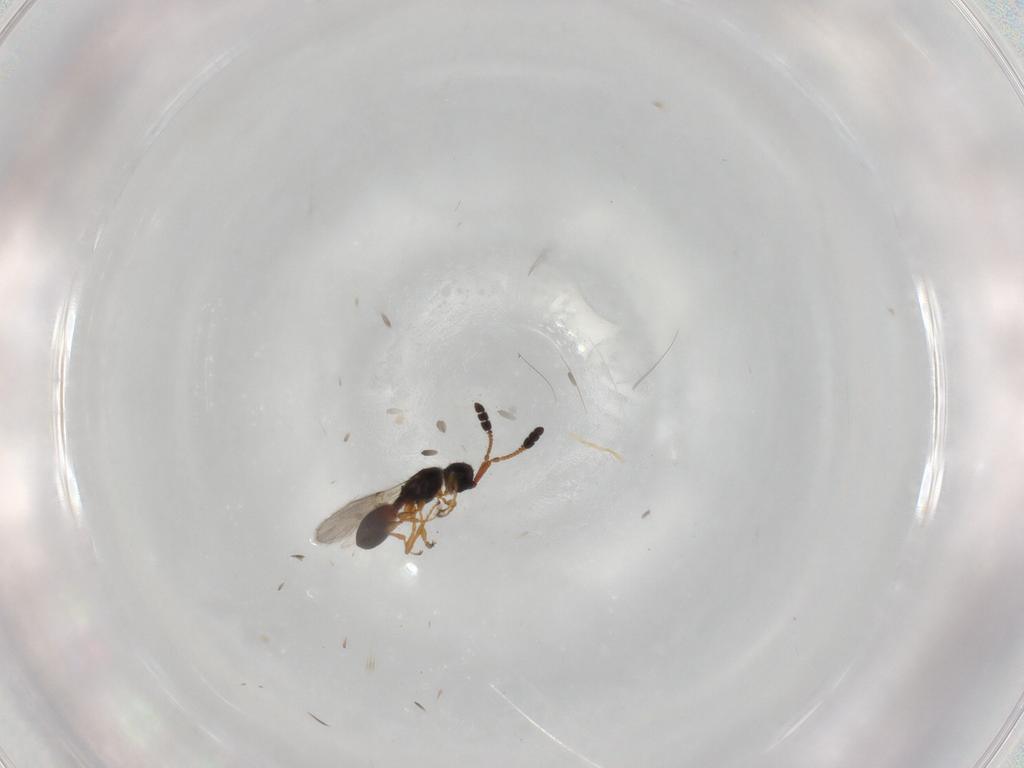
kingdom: Animalia
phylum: Arthropoda
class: Insecta
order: Hymenoptera
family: Diapriidae
